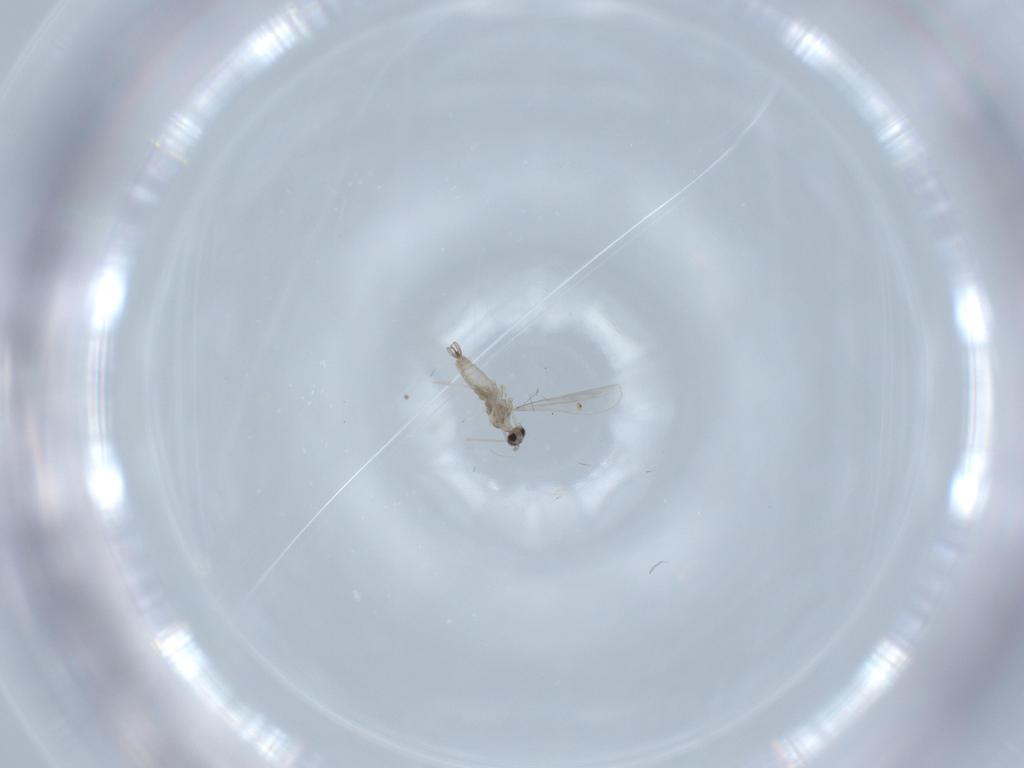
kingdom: Animalia
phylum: Arthropoda
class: Insecta
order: Diptera
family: Cecidomyiidae
